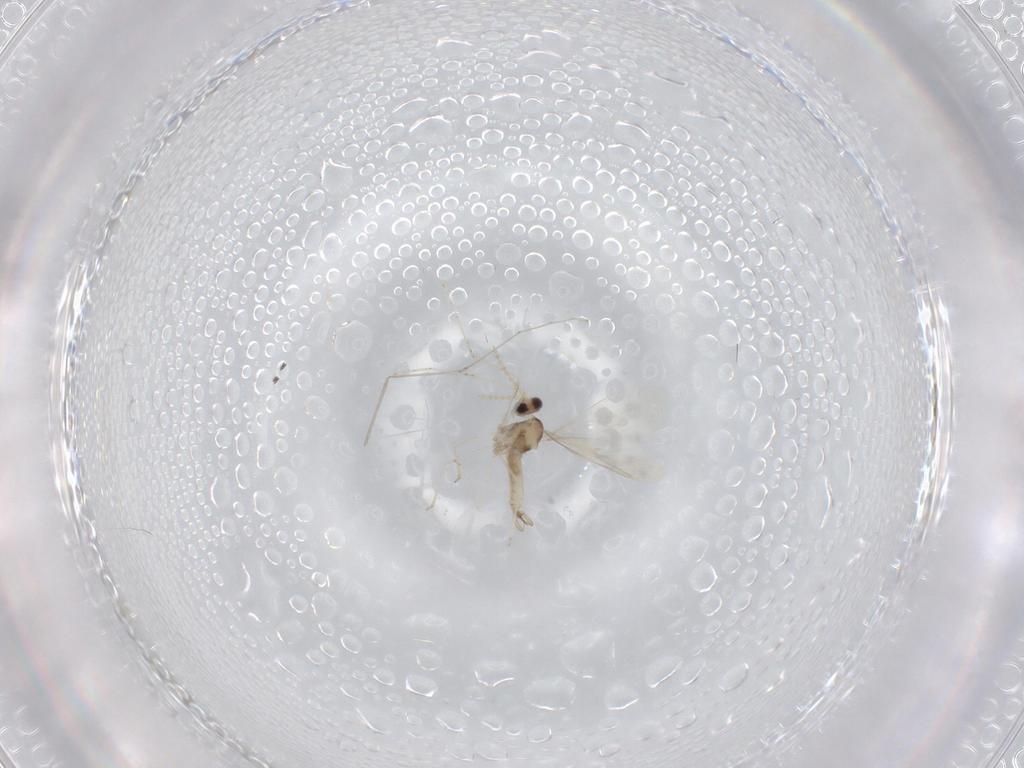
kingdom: Animalia
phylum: Arthropoda
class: Insecta
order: Diptera
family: Cecidomyiidae
